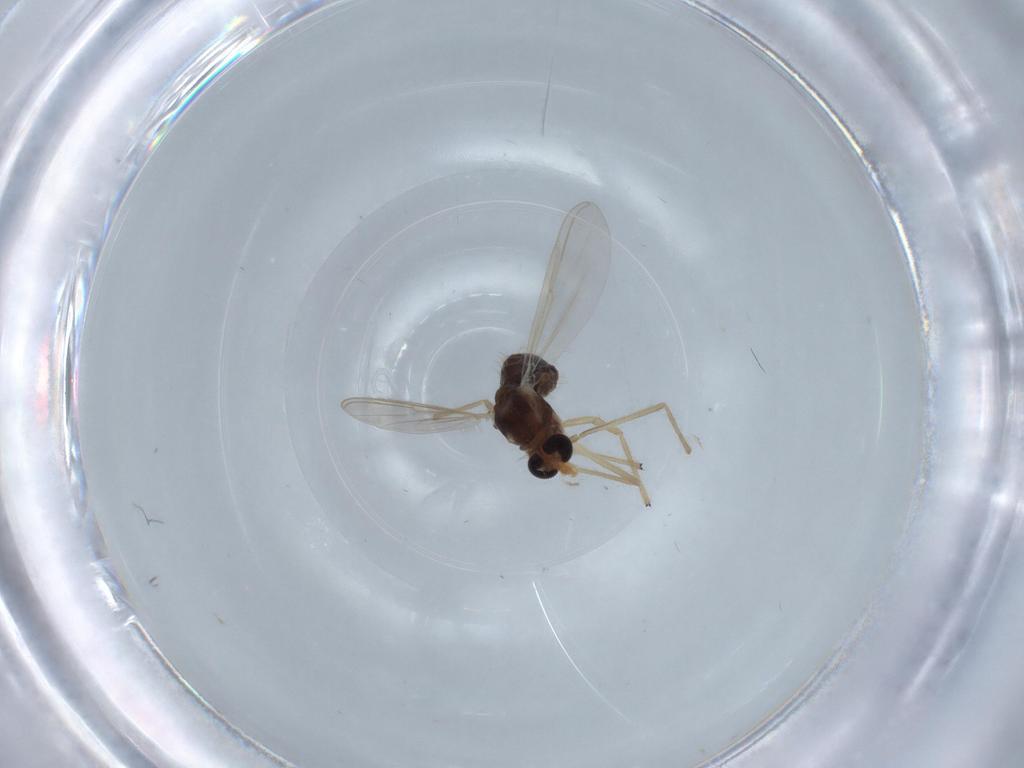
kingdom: Animalia
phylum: Arthropoda
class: Insecta
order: Diptera
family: Chironomidae
